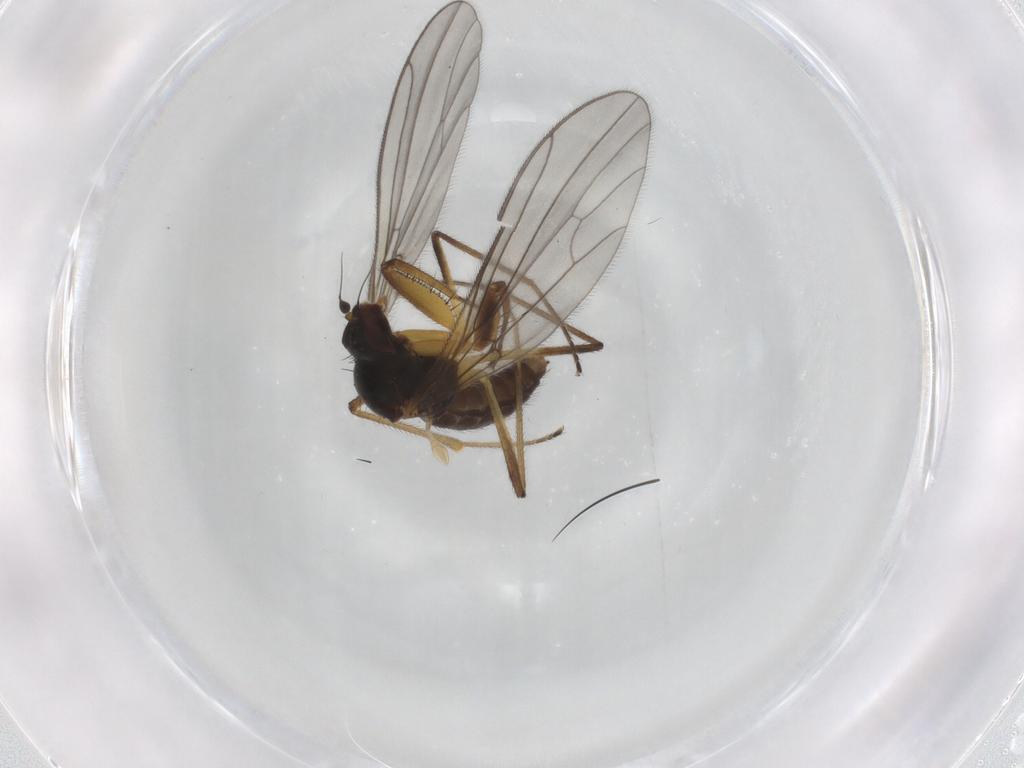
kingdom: Animalia
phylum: Arthropoda
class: Insecta
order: Diptera
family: Empididae
